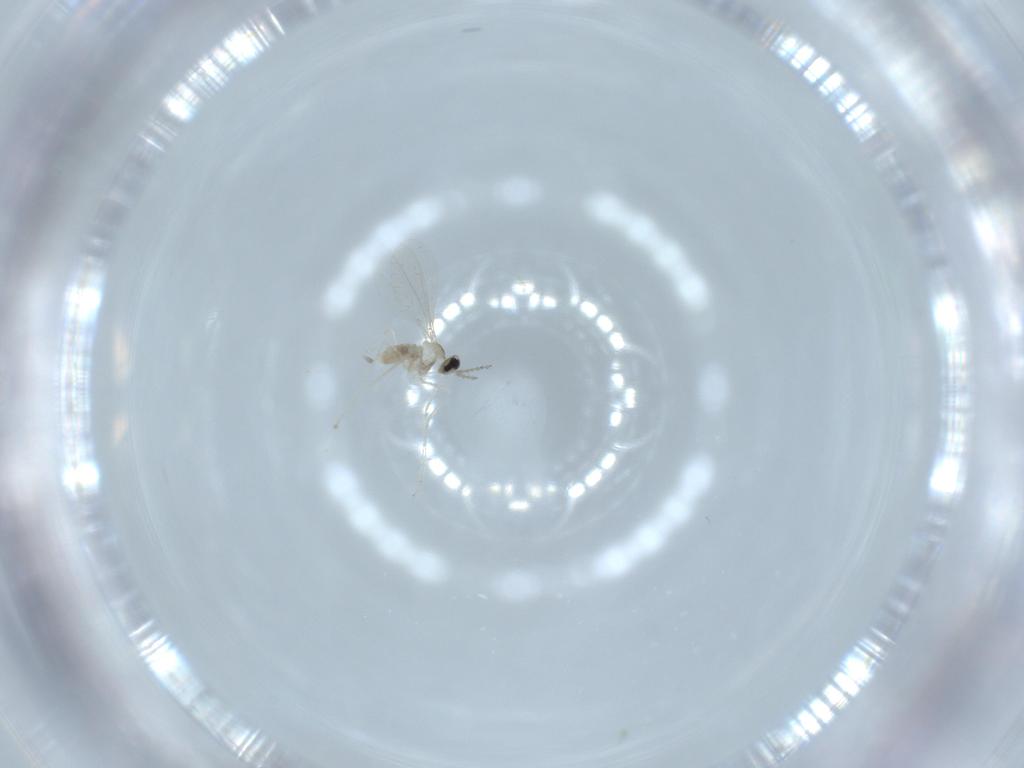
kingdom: Animalia
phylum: Arthropoda
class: Insecta
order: Diptera
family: Cecidomyiidae
